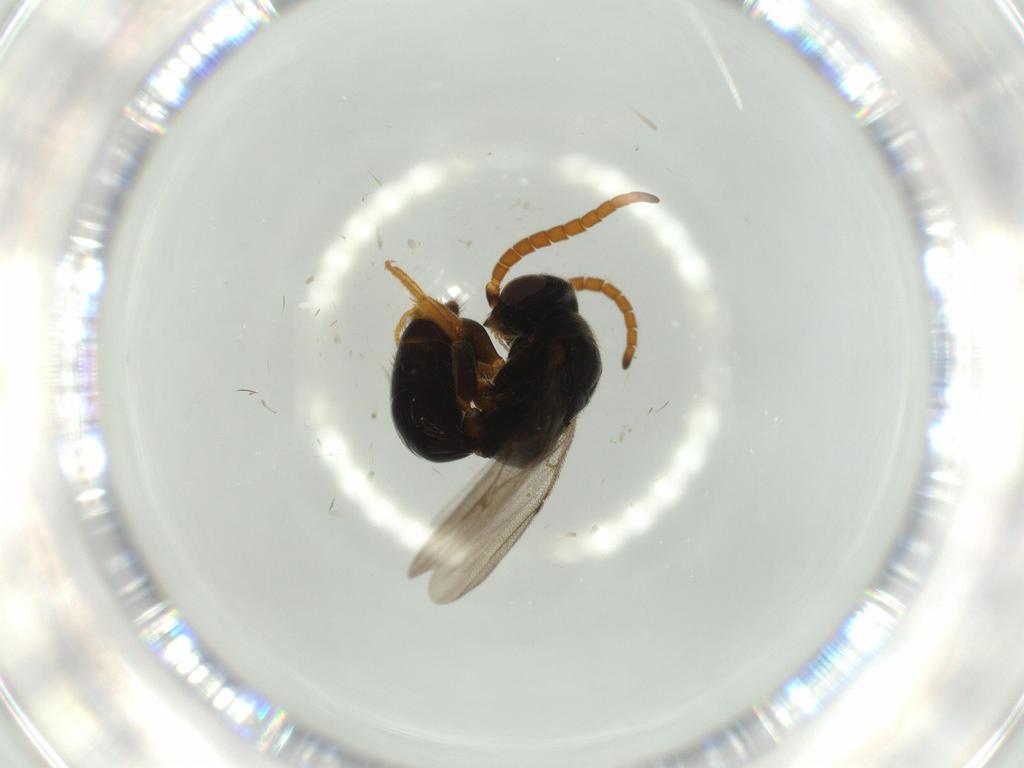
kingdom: Animalia
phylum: Arthropoda
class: Insecta
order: Hymenoptera
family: Bethylidae
